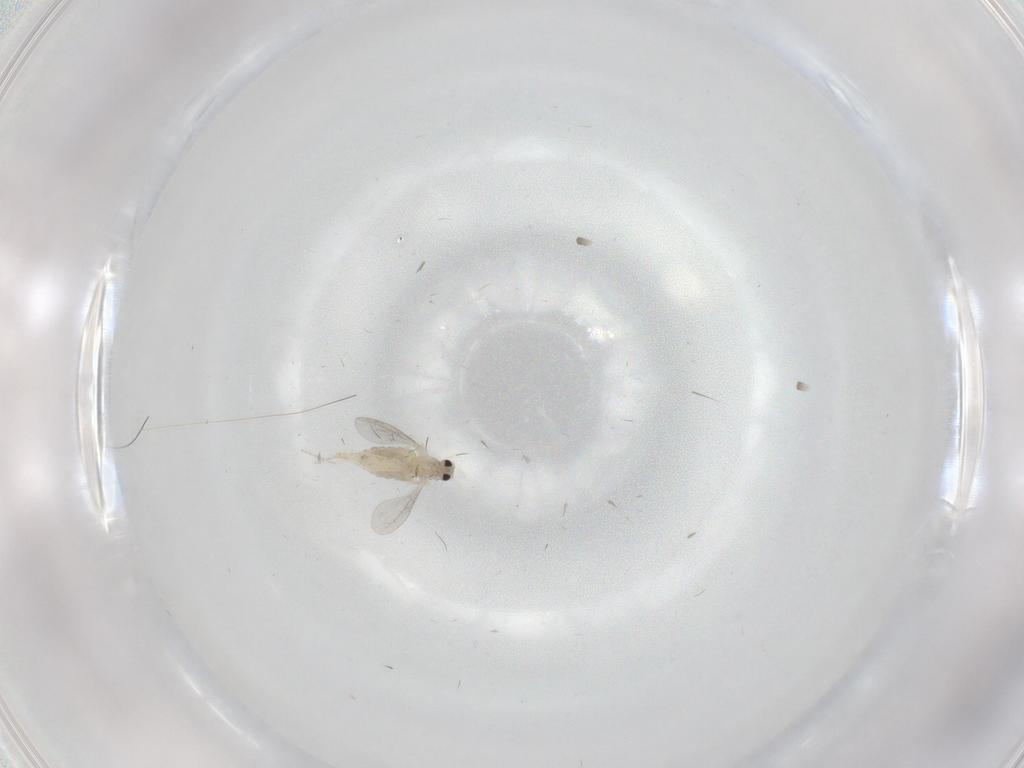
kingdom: Animalia
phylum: Arthropoda
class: Insecta
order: Diptera
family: Cecidomyiidae
